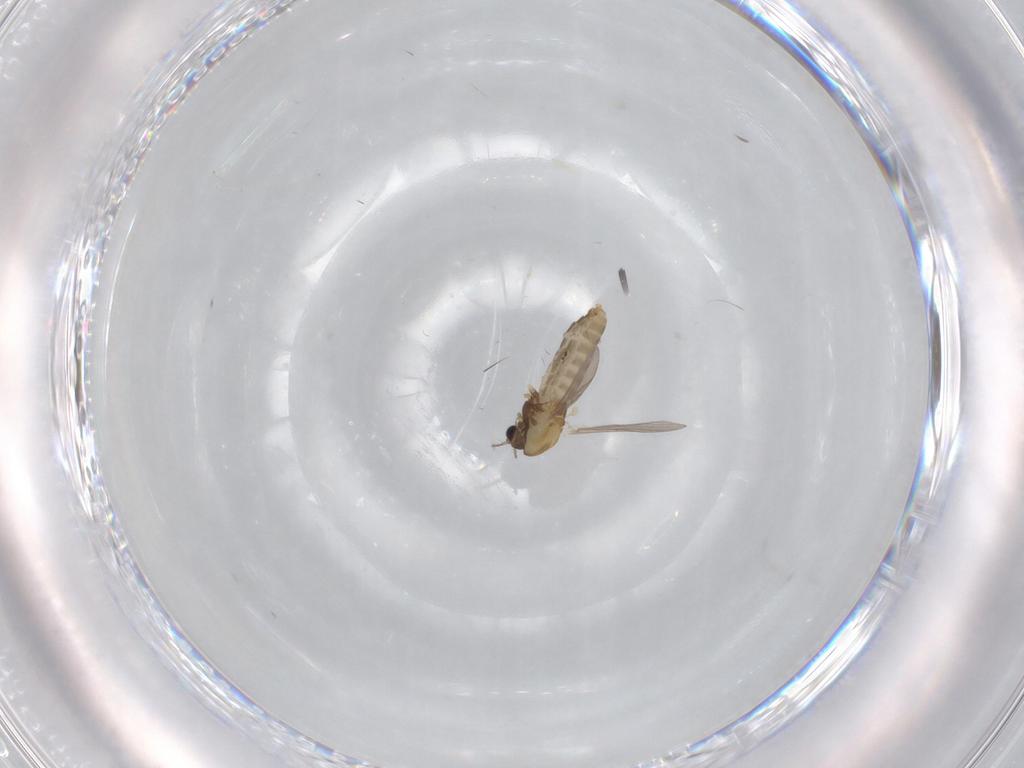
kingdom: Animalia
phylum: Arthropoda
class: Insecta
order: Diptera
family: Chironomidae
